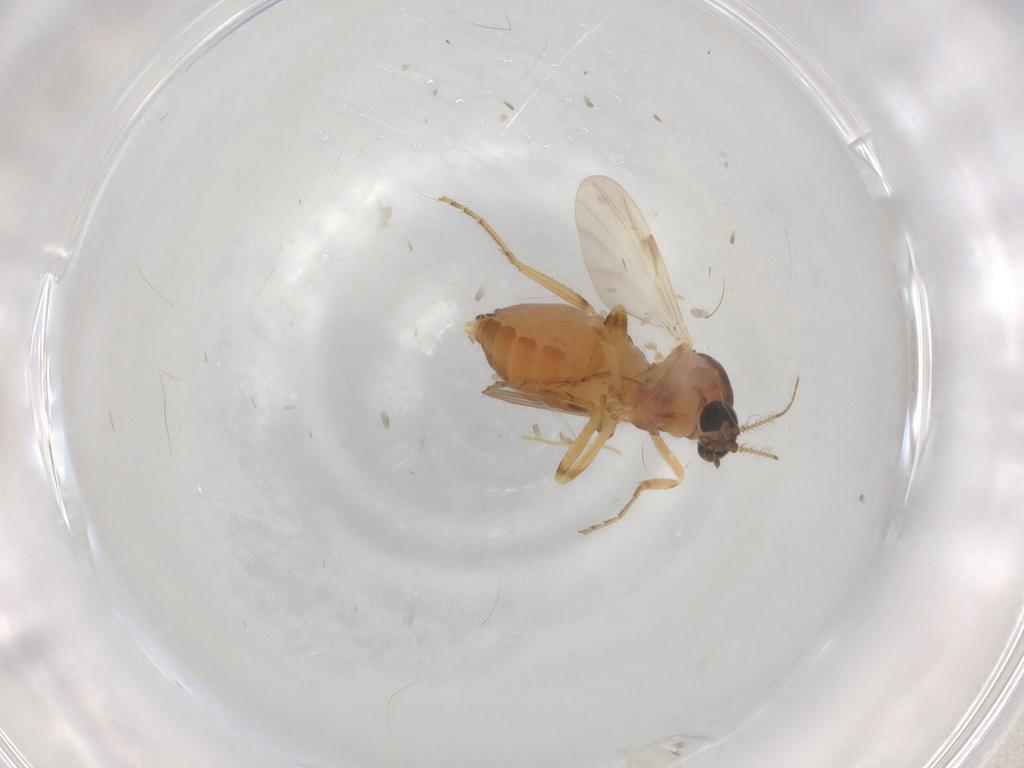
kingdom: Animalia
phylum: Arthropoda
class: Insecta
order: Diptera
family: Ceratopogonidae
